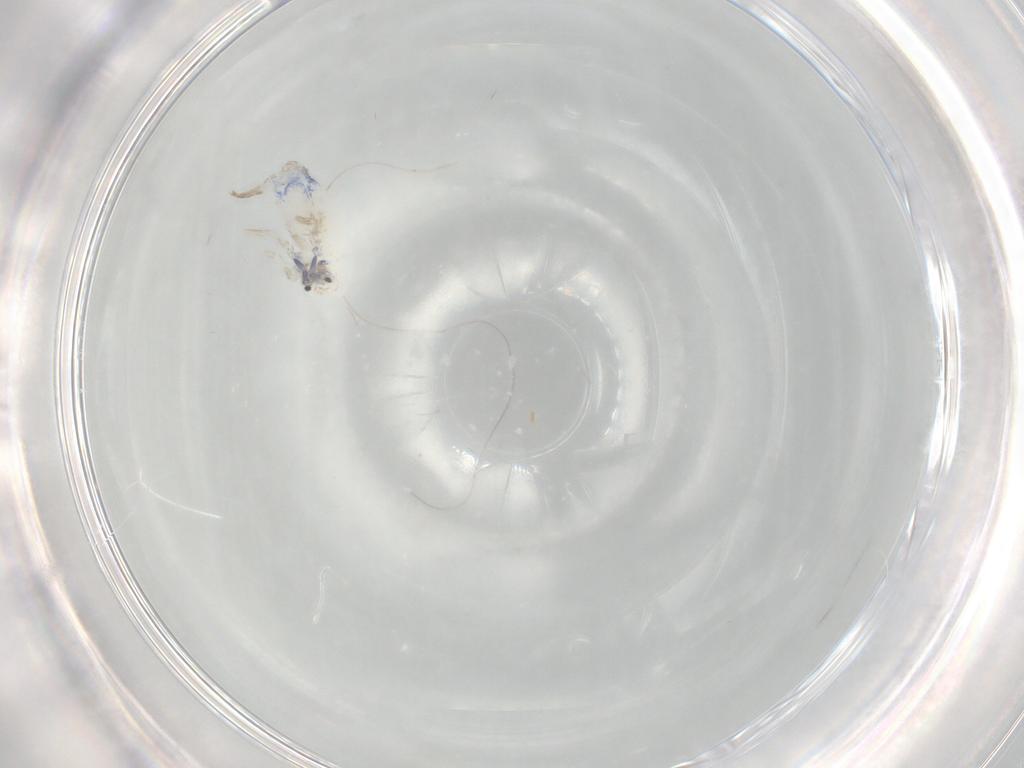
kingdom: Animalia
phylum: Arthropoda
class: Collembola
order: Entomobryomorpha
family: Entomobryidae
